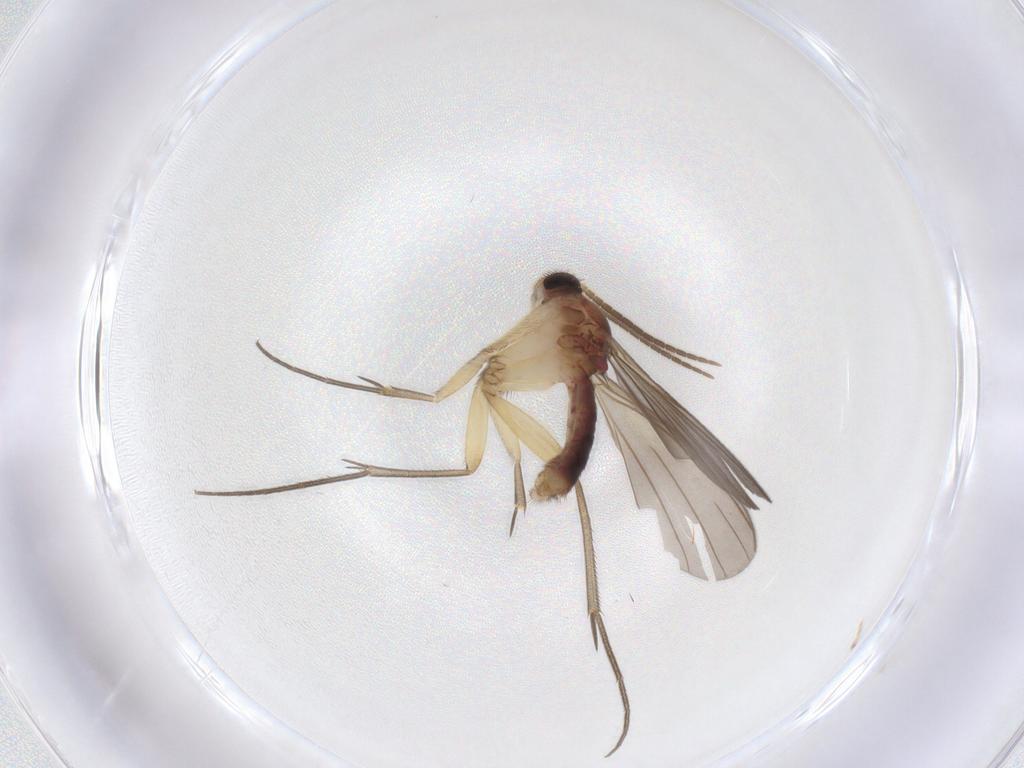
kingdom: Animalia
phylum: Arthropoda
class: Insecta
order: Diptera
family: Mycetophilidae
